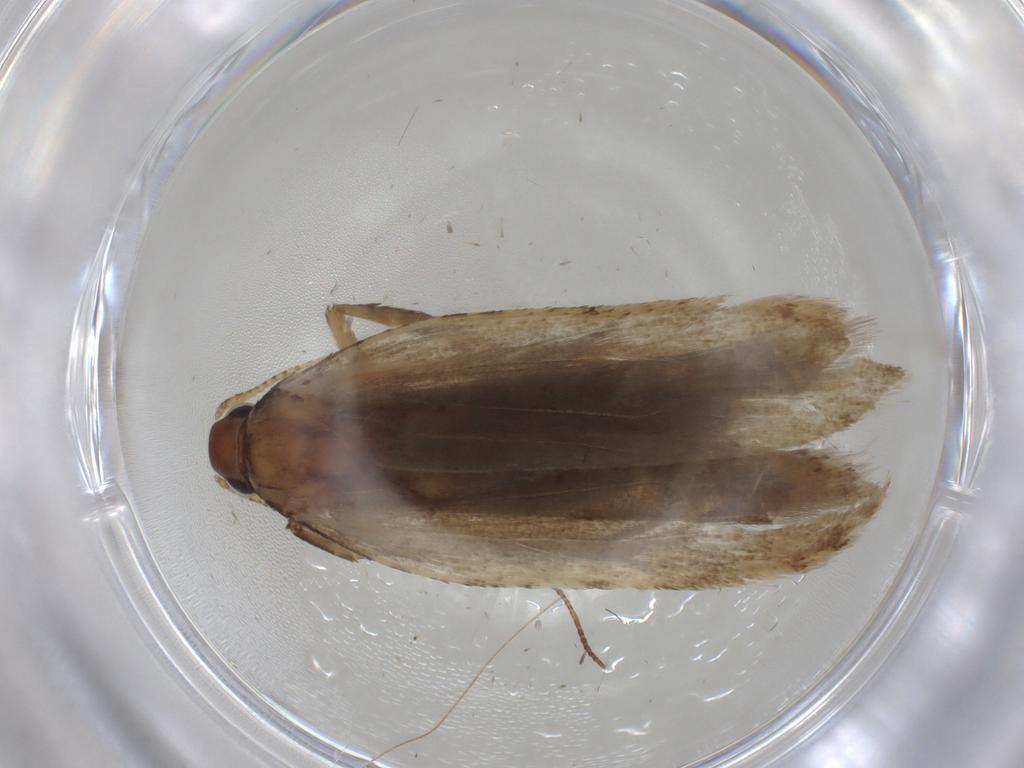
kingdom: Animalia
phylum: Arthropoda
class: Insecta
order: Lepidoptera
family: Gelechiidae
